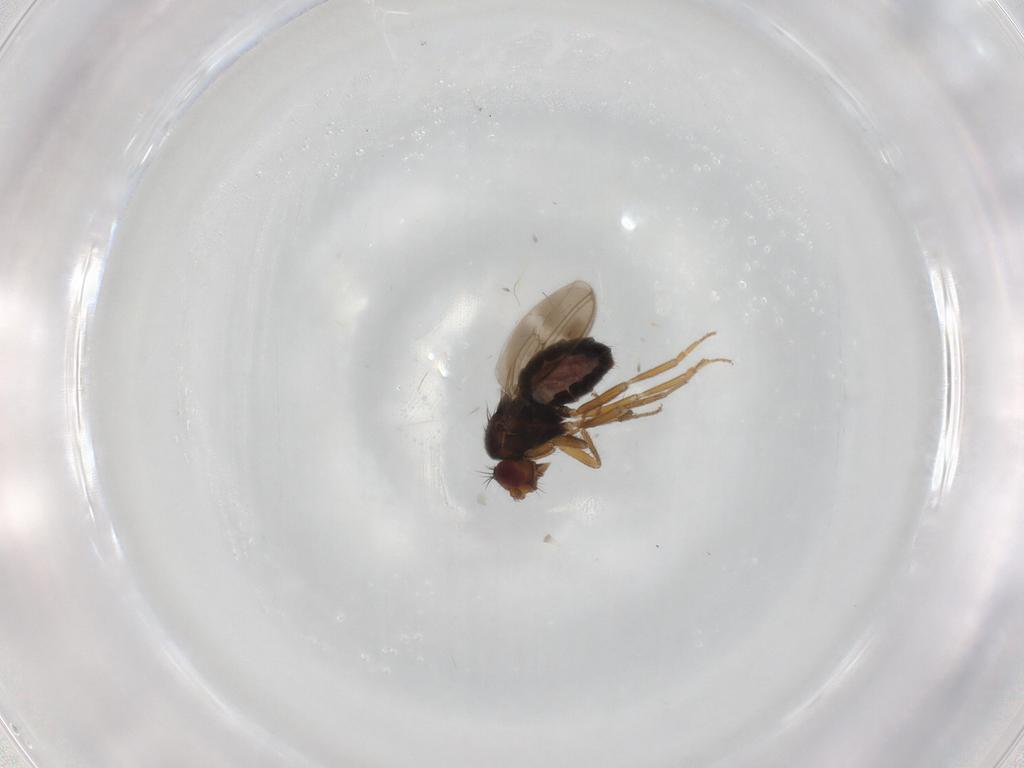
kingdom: Animalia
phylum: Arthropoda
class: Insecta
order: Diptera
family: Sphaeroceridae
